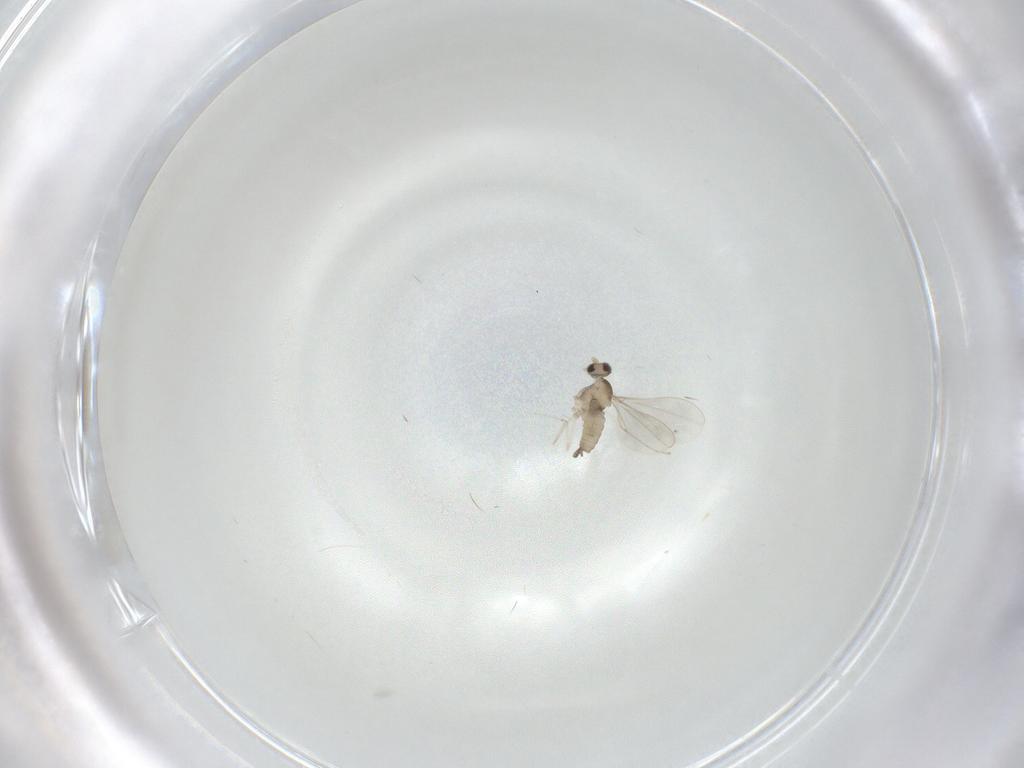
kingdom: Animalia
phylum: Arthropoda
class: Insecta
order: Diptera
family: Cecidomyiidae
